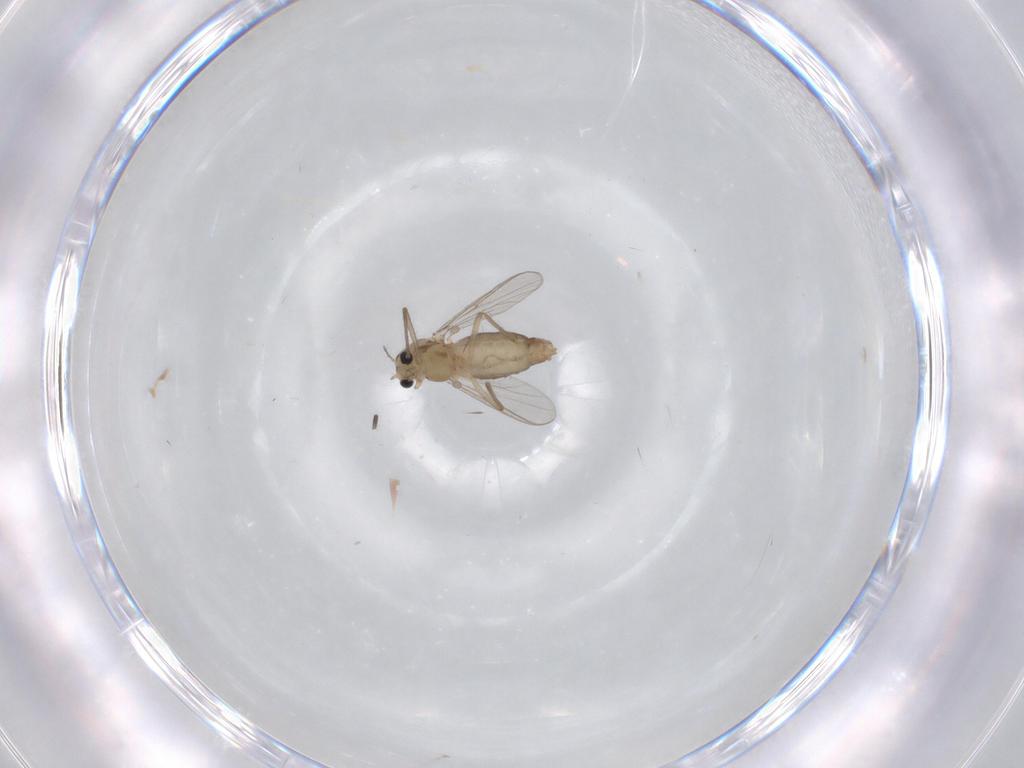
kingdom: Animalia
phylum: Arthropoda
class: Insecta
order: Diptera
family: Chironomidae
